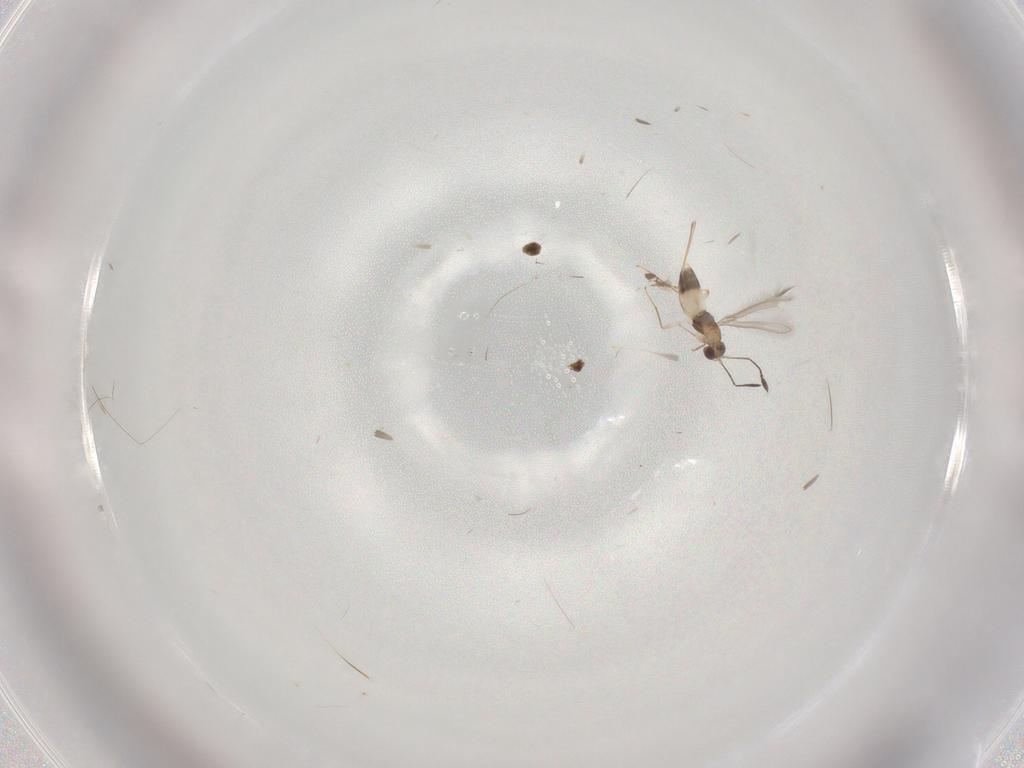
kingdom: Animalia
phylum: Arthropoda
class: Insecta
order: Hymenoptera
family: Mymaridae
